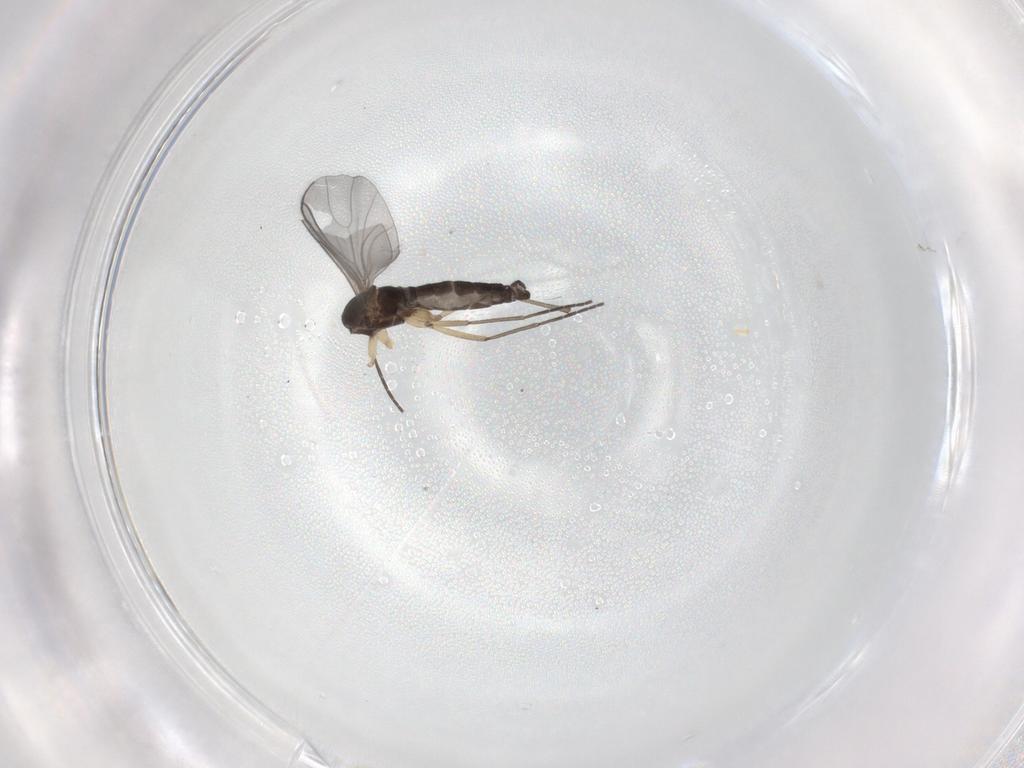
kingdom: Animalia
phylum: Arthropoda
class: Insecta
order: Diptera
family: Sciaridae
